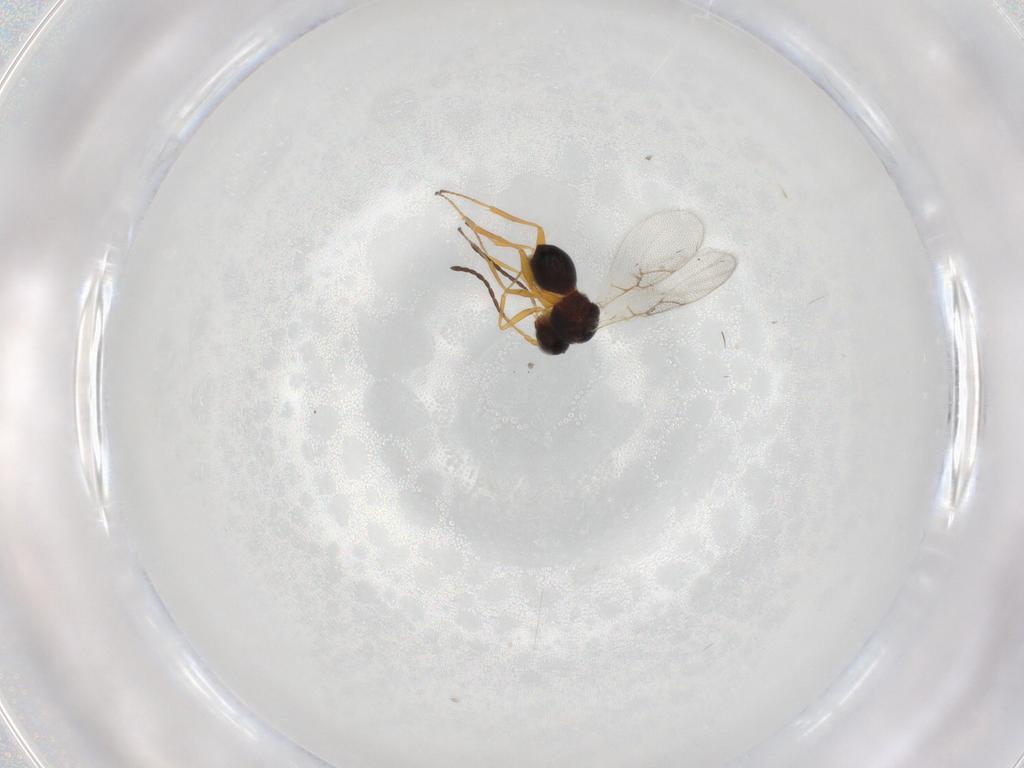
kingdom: Animalia
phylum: Arthropoda
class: Insecta
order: Hymenoptera
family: Figitidae
